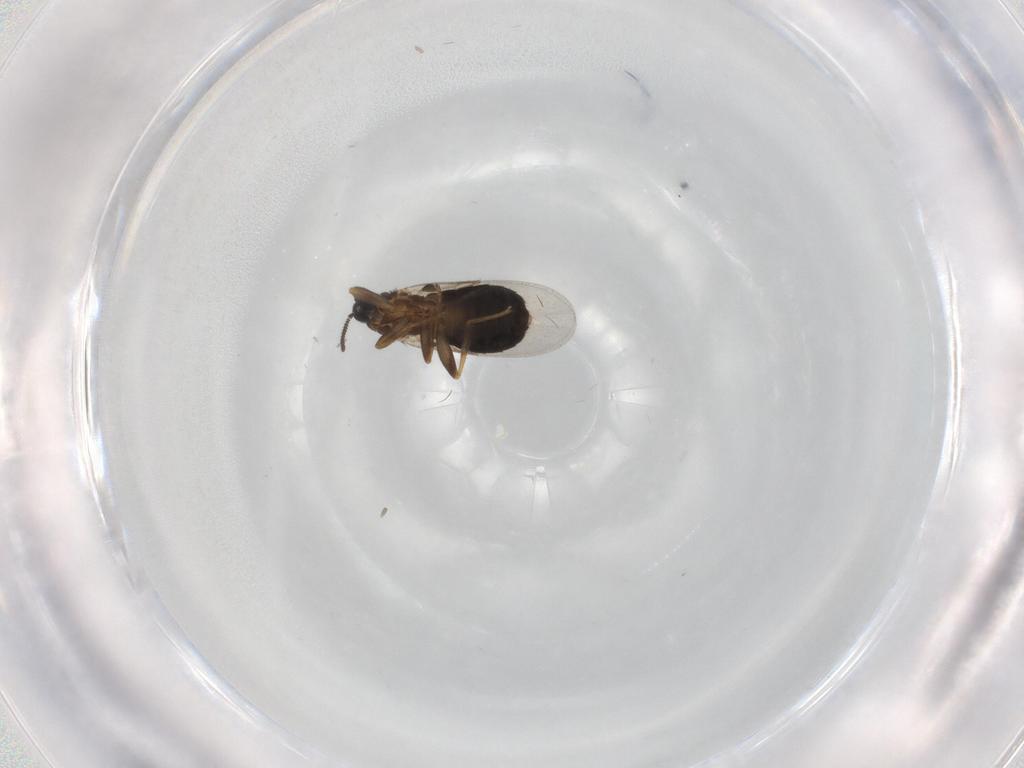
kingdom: Animalia
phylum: Arthropoda
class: Insecta
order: Diptera
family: Scatopsidae
